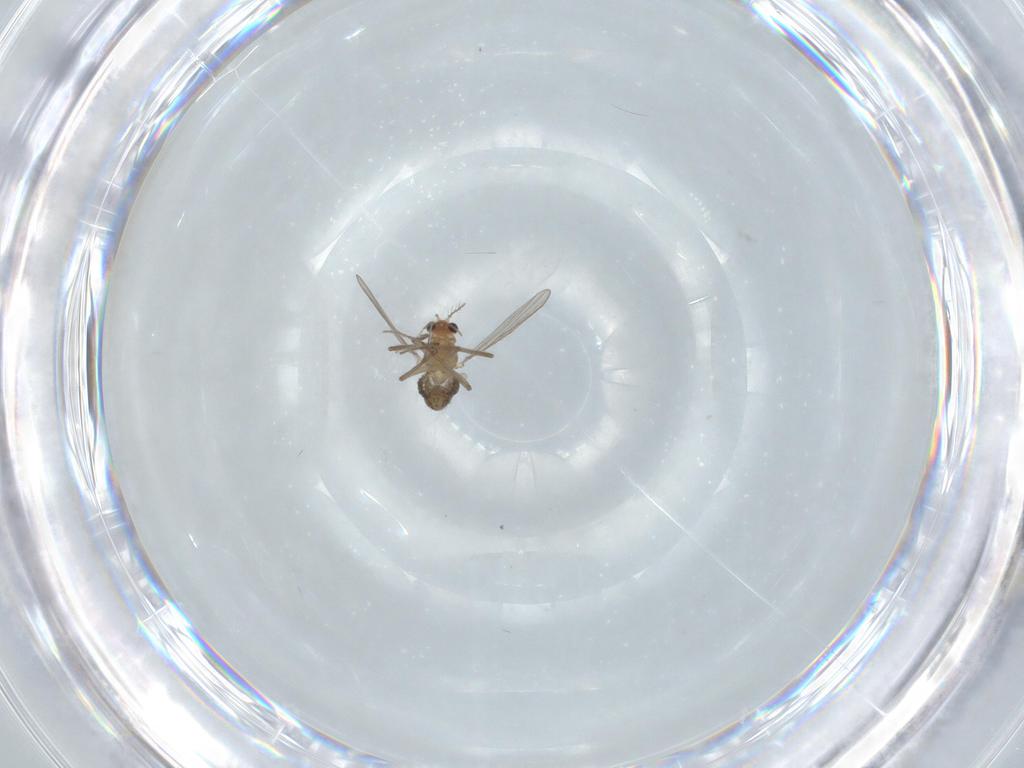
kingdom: Animalia
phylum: Arthropoda
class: Insecta
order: Diptera
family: Chironomidae
